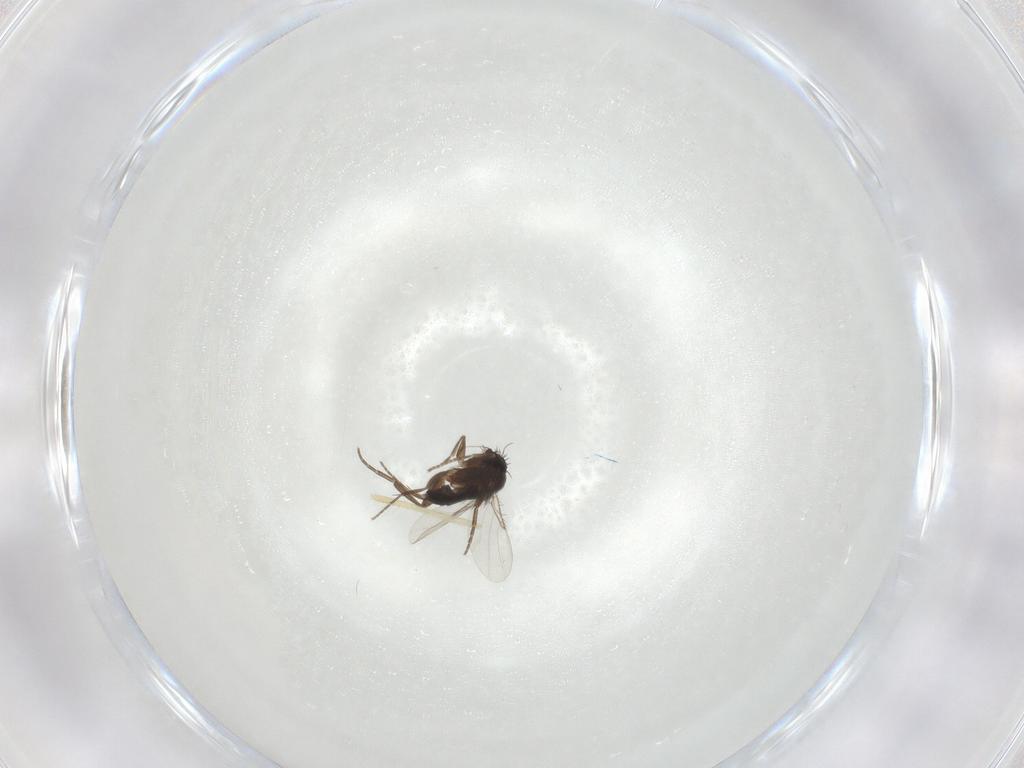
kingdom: Animalia
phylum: Arthropoda
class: Insecta
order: Diptera
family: Phoridae
